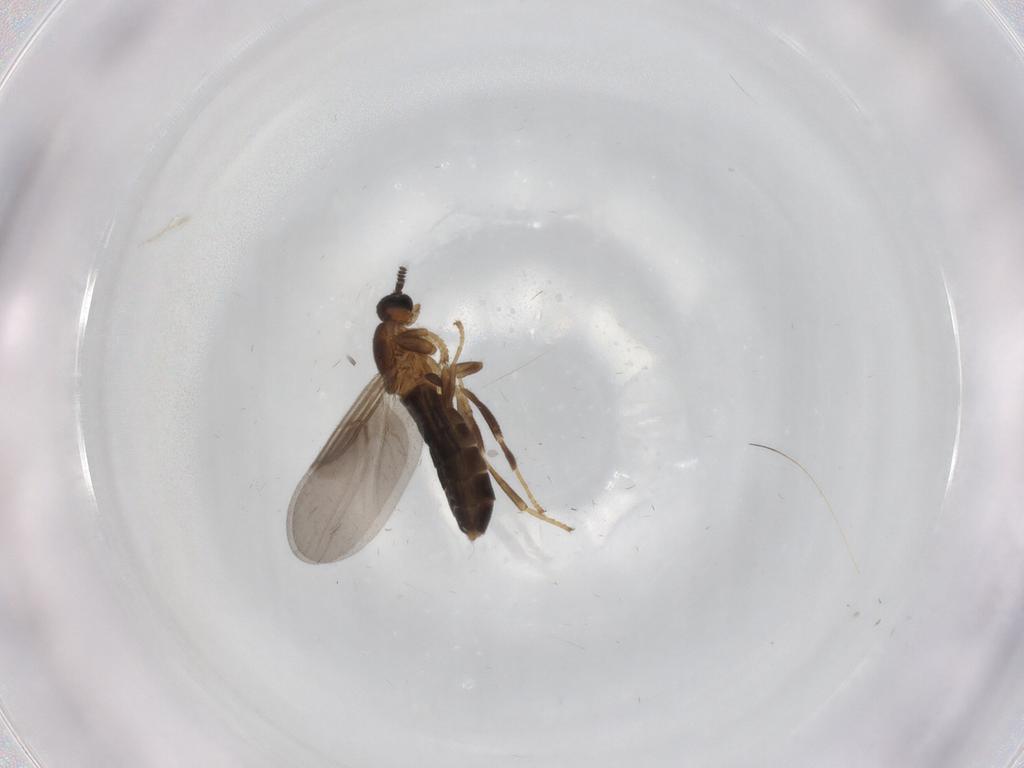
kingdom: Animalia
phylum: Arthropoda
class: Insecta
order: Diptera
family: Scatopsidae
